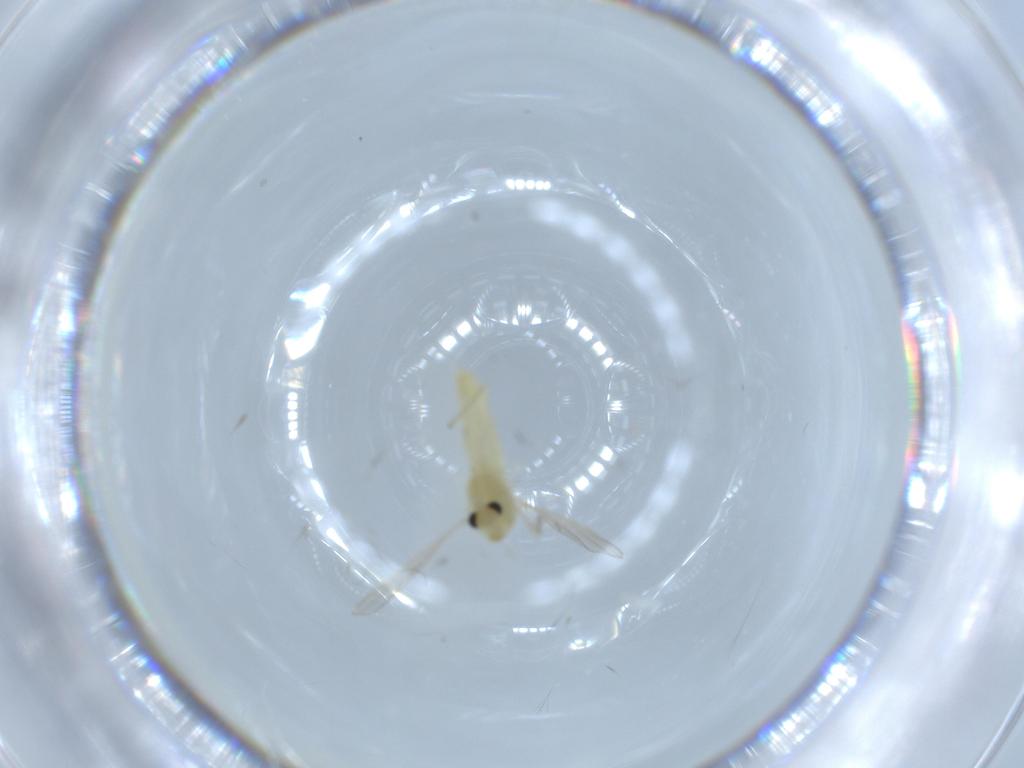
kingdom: Animalia
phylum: Arthropoda
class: Insecta
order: Diptera
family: Chironomidae
